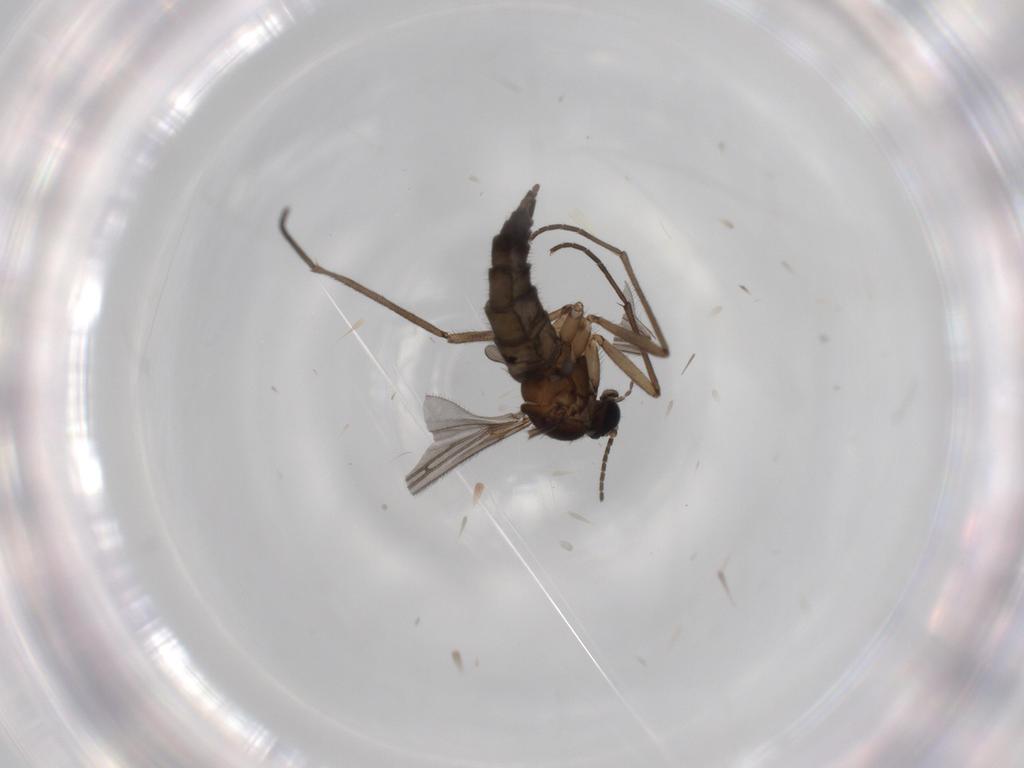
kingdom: Animalia
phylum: Arthropoda
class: Insecta
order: Diptera
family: Sciaridae
